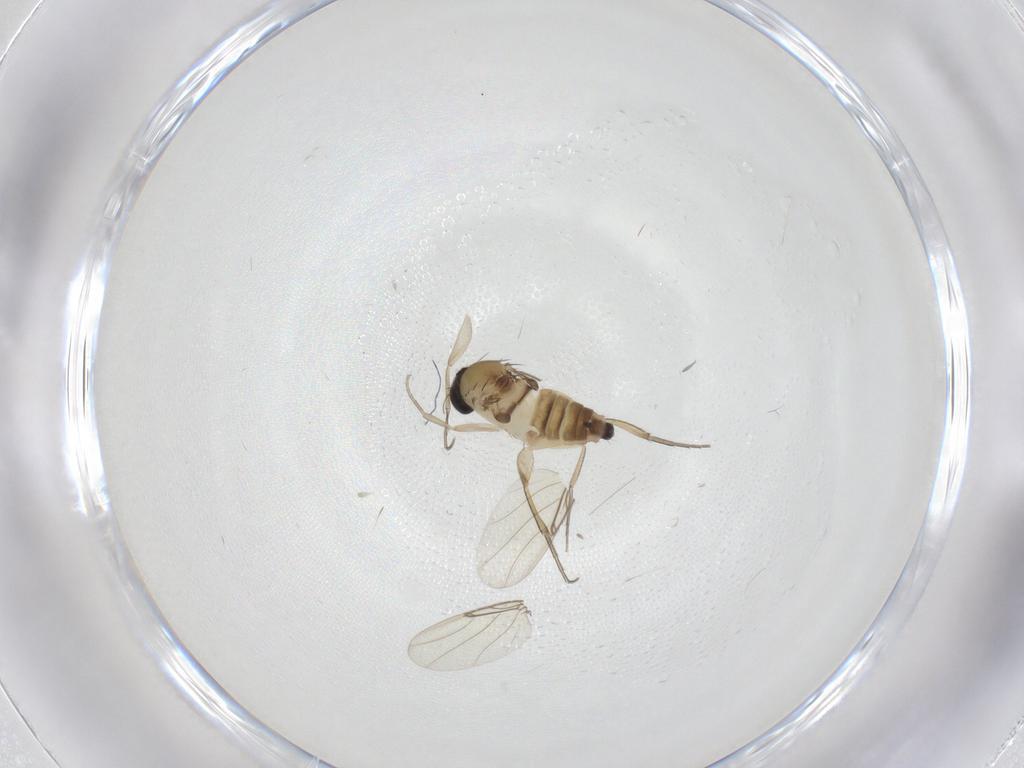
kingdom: Animalia
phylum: Arthropoda
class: Insecta
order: Diptera
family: Phoridae
